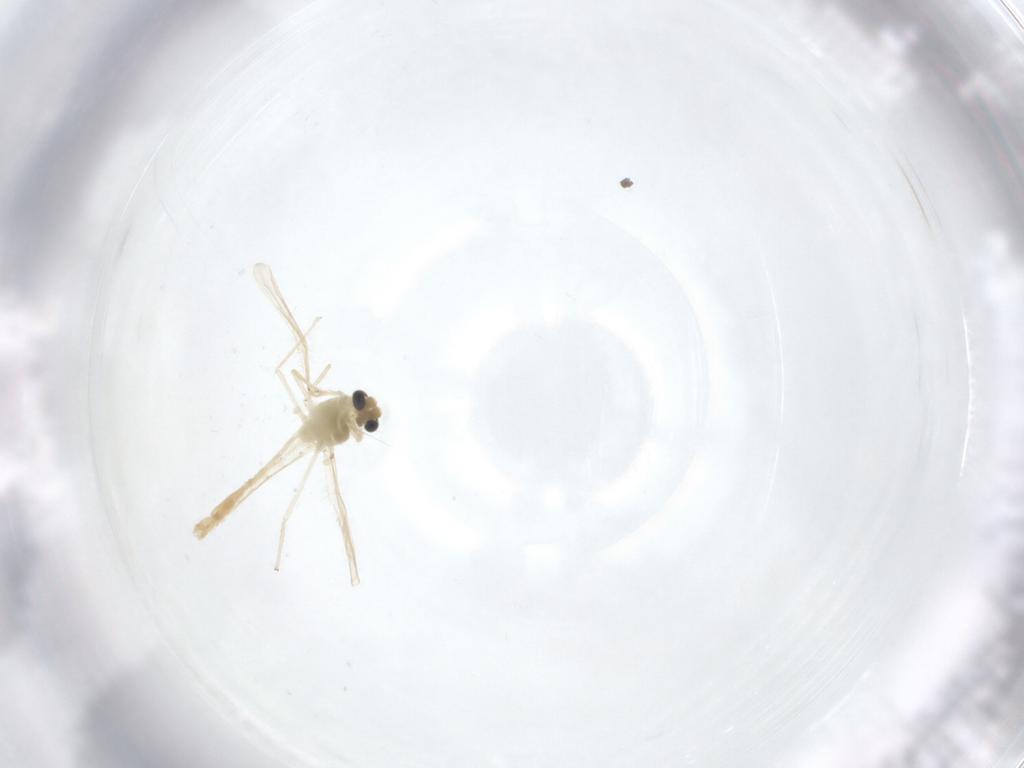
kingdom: Animalia
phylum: Arthropoda
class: Insecta
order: Diptera
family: Chironomidae
